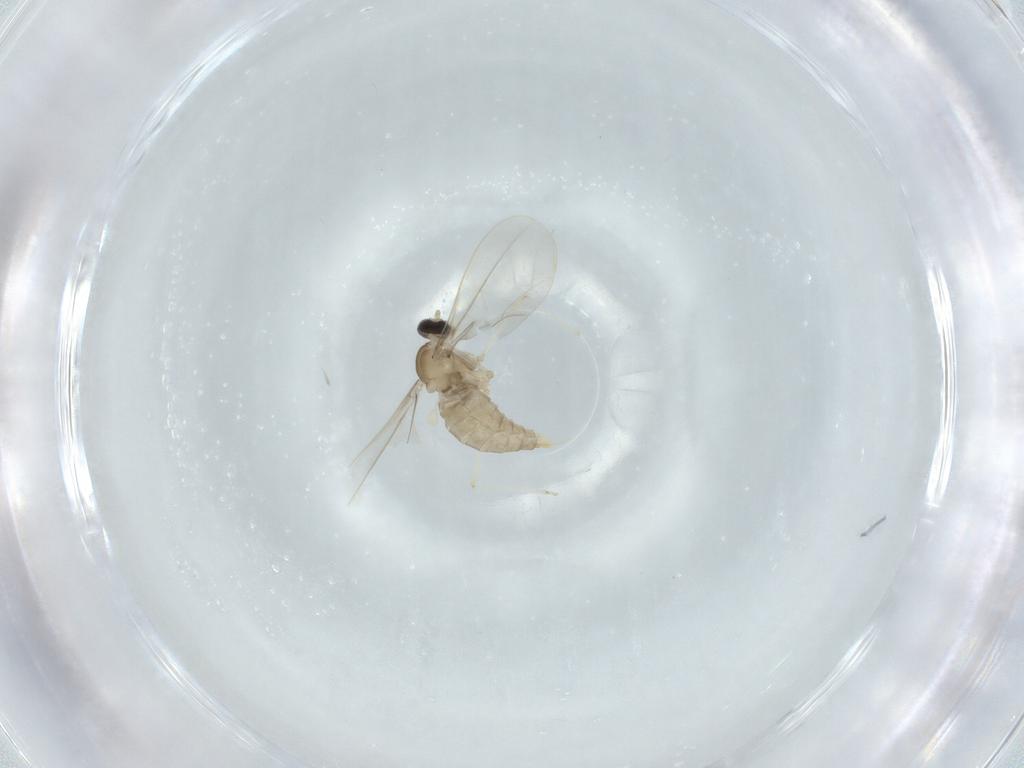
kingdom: Animalia
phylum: Arthropoda
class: Insecta
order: Diptera
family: Cecidomyiidae
